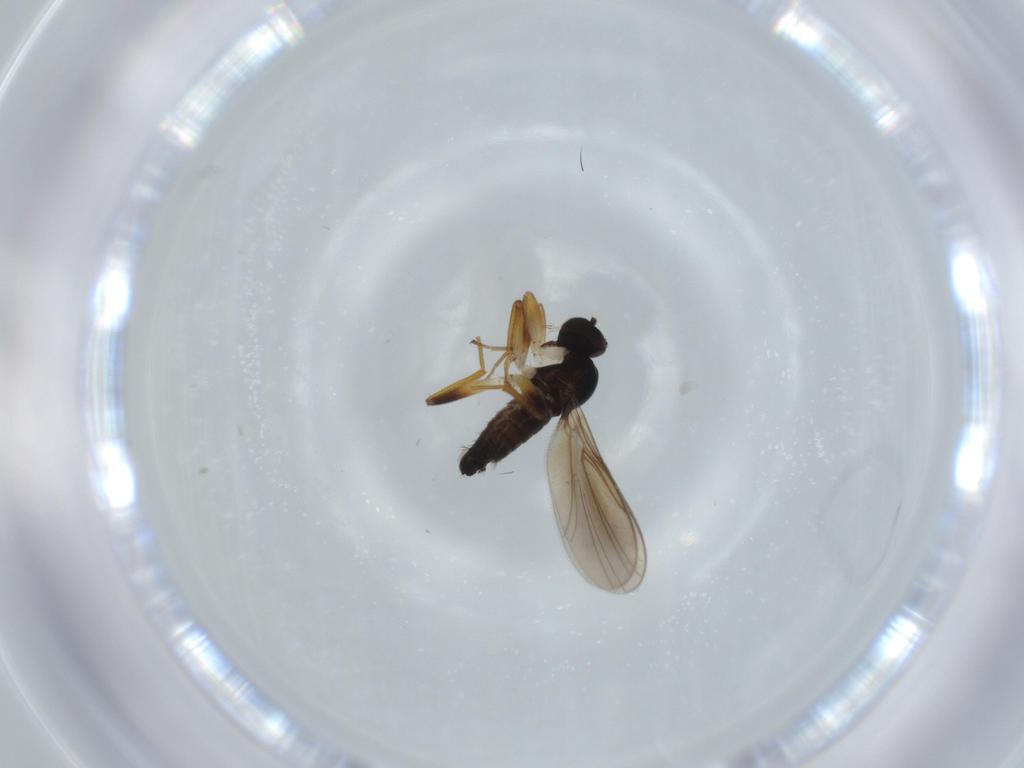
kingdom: Animalia
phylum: Arthropoda
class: Insecta
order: Diptera
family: Hybotidae
